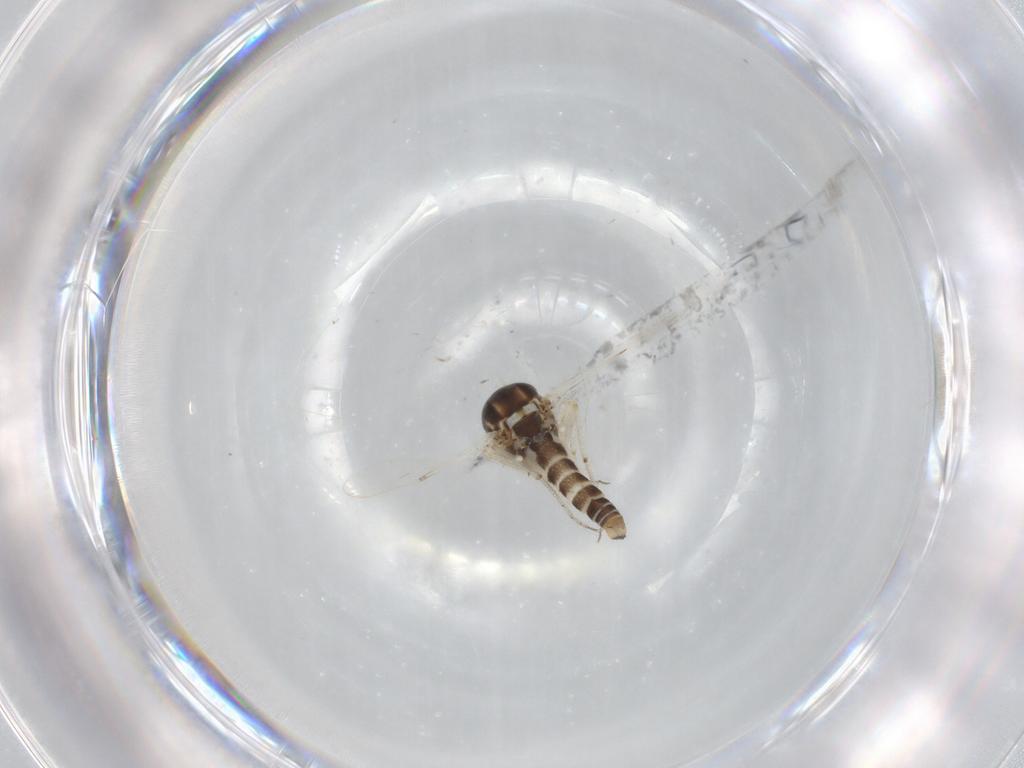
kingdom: Animalia
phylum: Arthropoda
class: Insecta
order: Diptera
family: Ceratopogonidae
